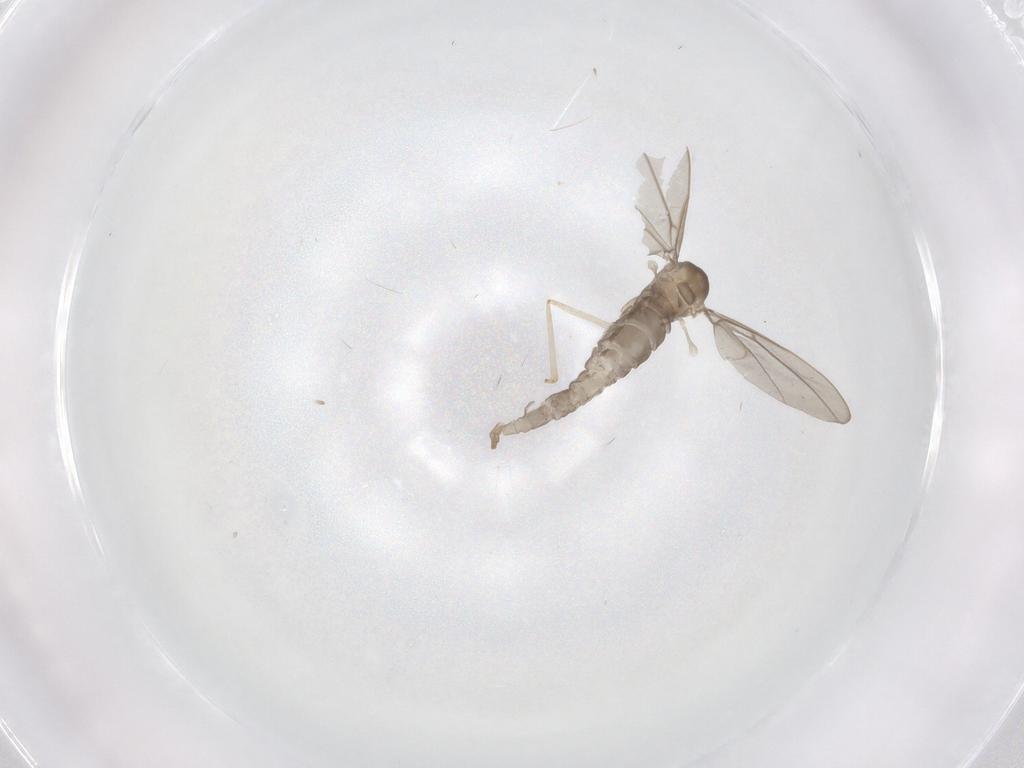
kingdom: Animalia
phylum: Arthropoda
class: Insecta
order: Diptera
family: Cecidomyiidae
